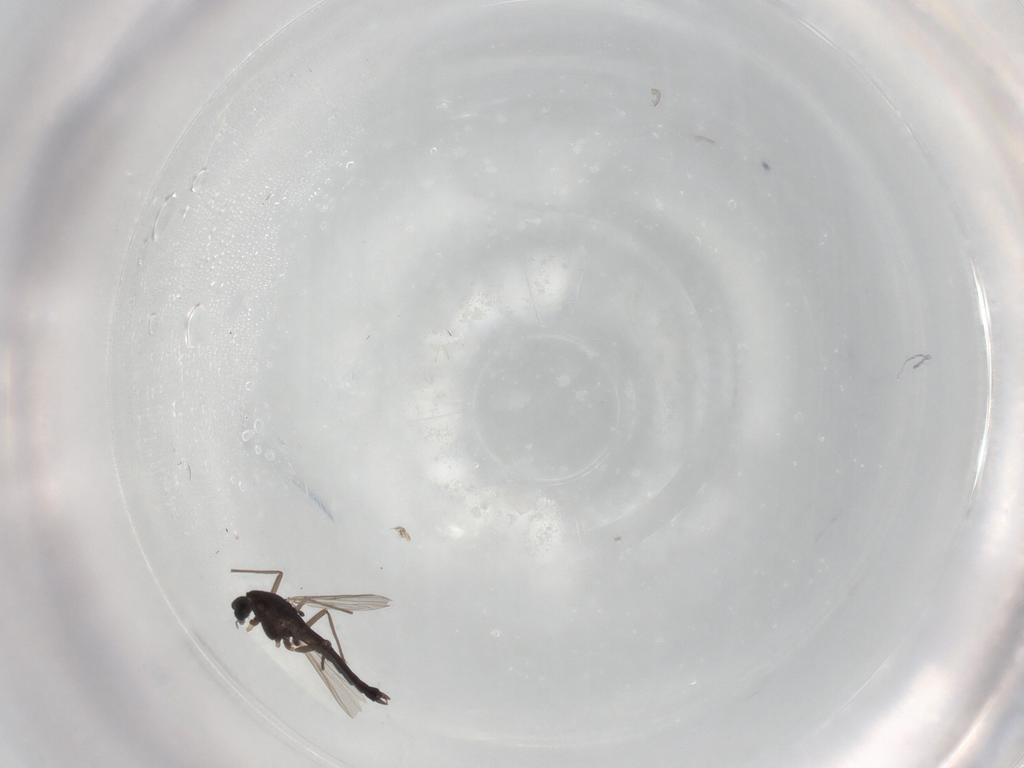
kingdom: Animalia
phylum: Arthropoda
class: Insecta
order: Diptera
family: Chironomidae
